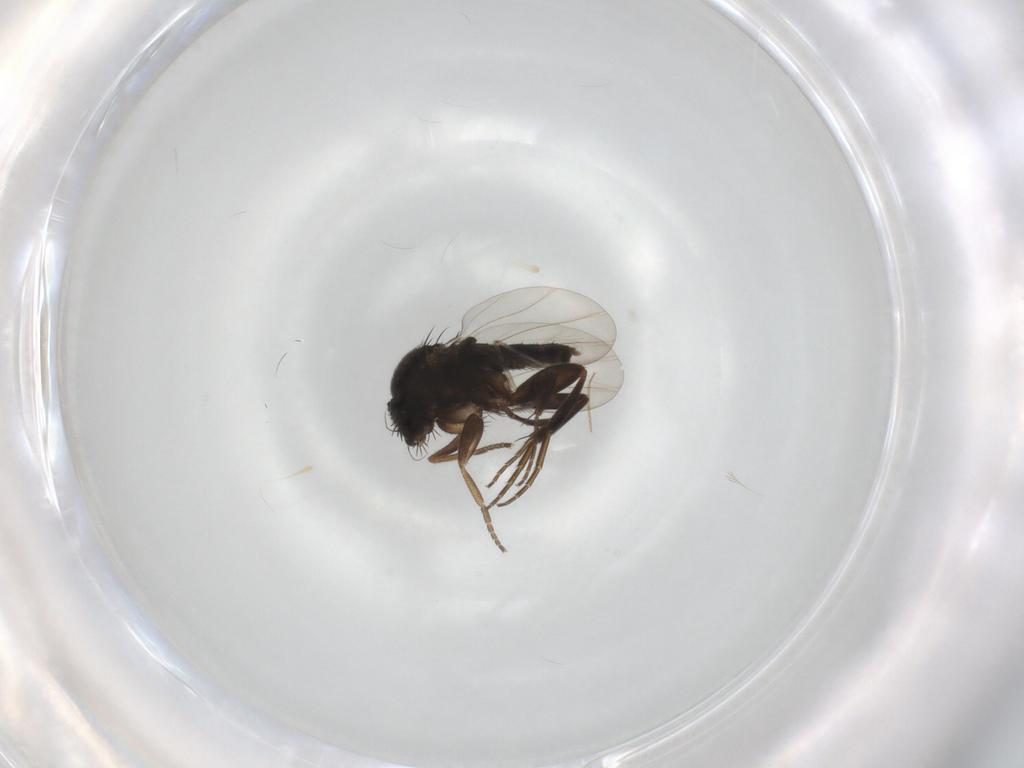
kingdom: Animalia
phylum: Arthropoda
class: Insecta
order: Diptera
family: Phoridae
